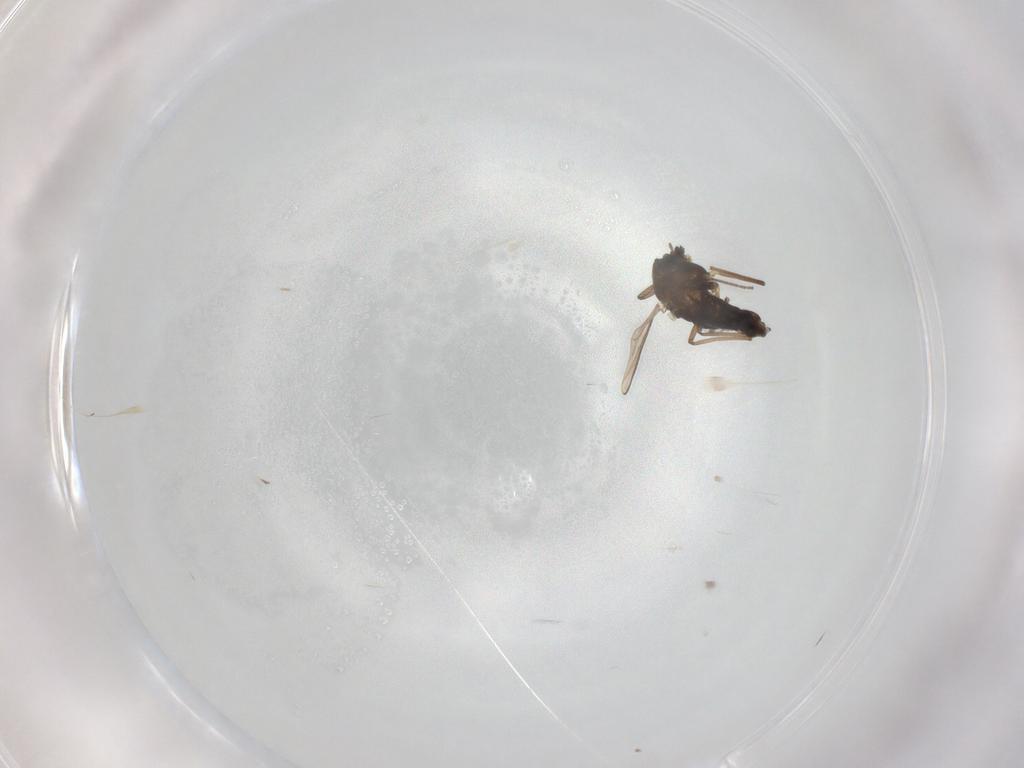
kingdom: Animalia
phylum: Arthropoda
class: Insecta
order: Diptera
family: Chironomidae
